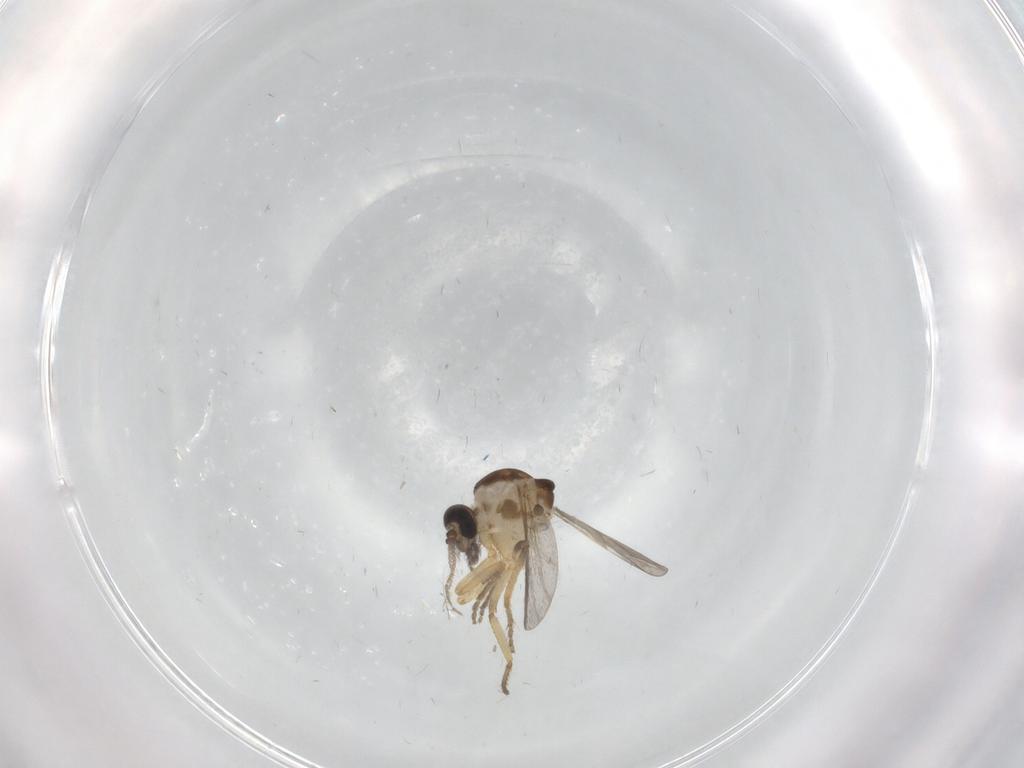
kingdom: Animalia
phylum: Arthropoda
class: Insecta
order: Diptera
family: Ceratopogonidae
